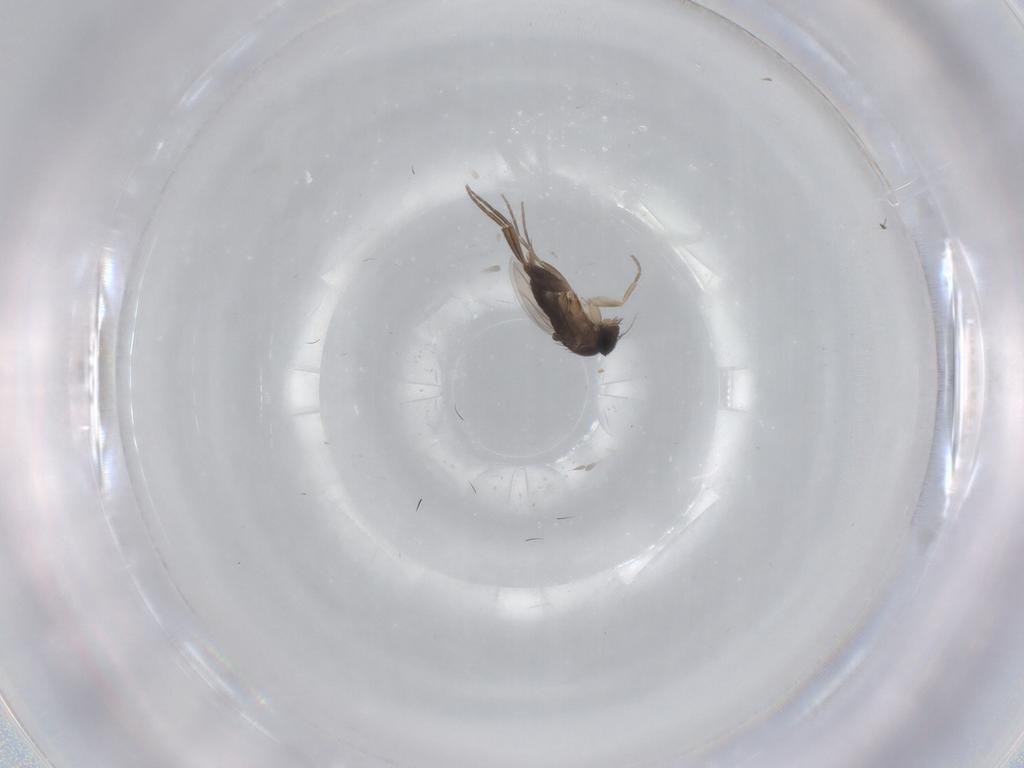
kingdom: Animalia
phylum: Arthropoda
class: Insecta
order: Diptera
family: Phoridae
